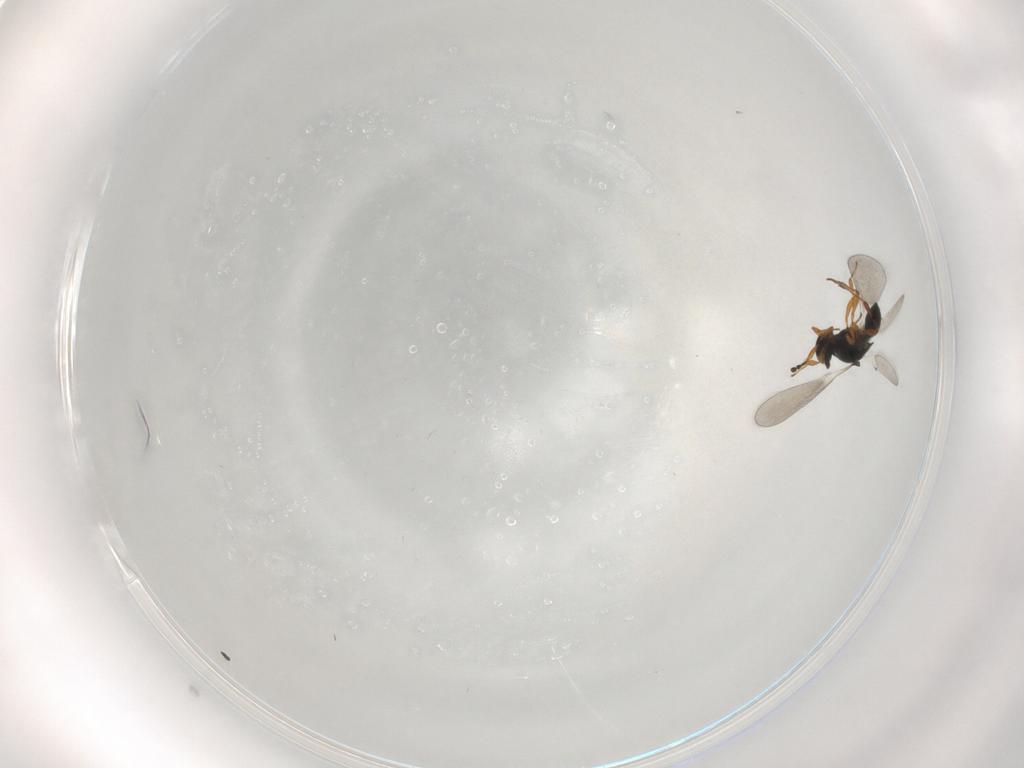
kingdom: Animalia
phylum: Arthropoda
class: Insecta
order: Hymenoptera
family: Platygastridae
